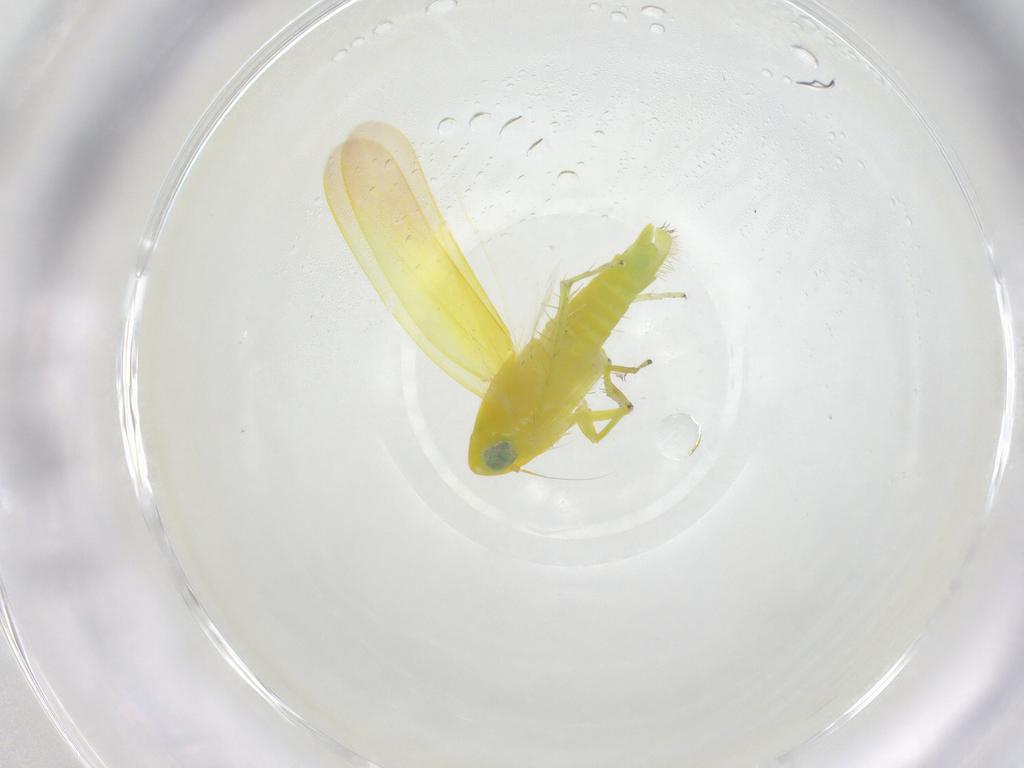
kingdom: Animalia
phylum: Arthropoda
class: Insecta
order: Hemiptera
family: Cicadellidae
